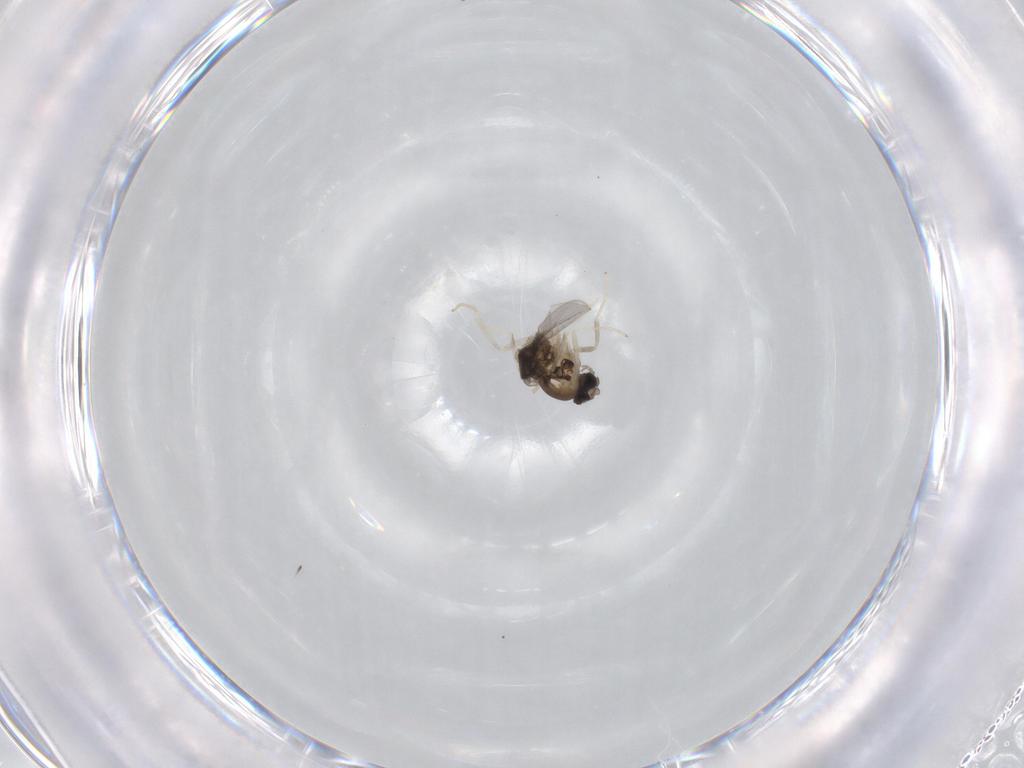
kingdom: Animalia
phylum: Arthropoda
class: Insecta
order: Diptera
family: Cecidomyiidae
